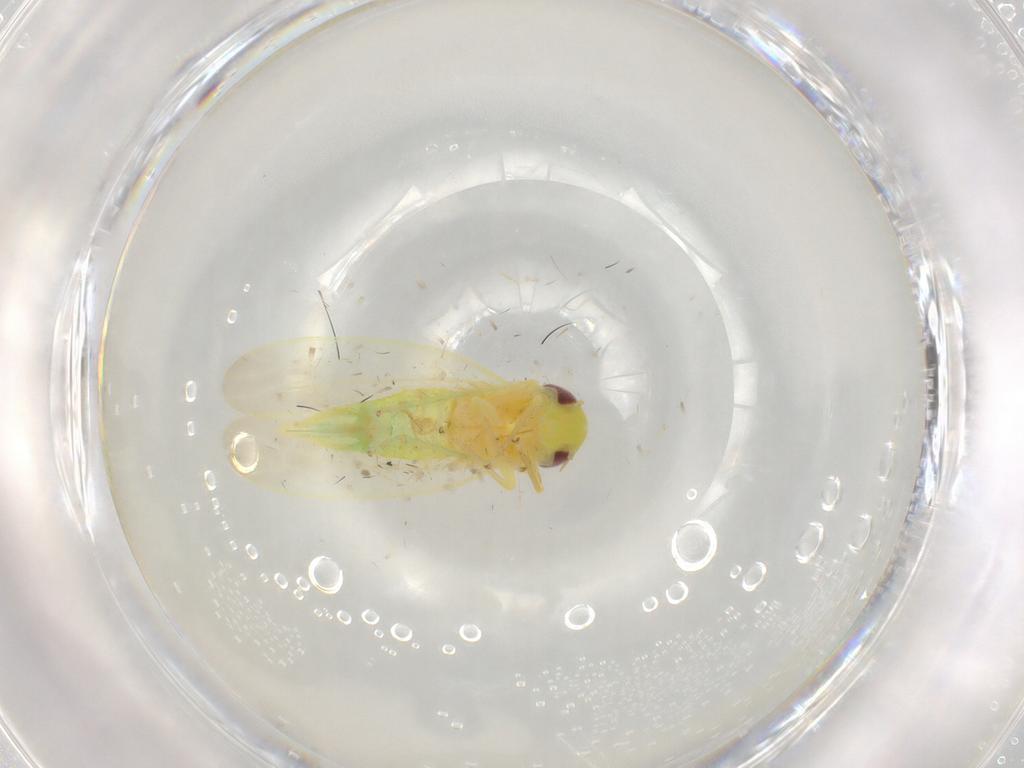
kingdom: Animalia
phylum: Arthropoda
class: Insecta
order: Hemiptera
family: Cicadellidae
